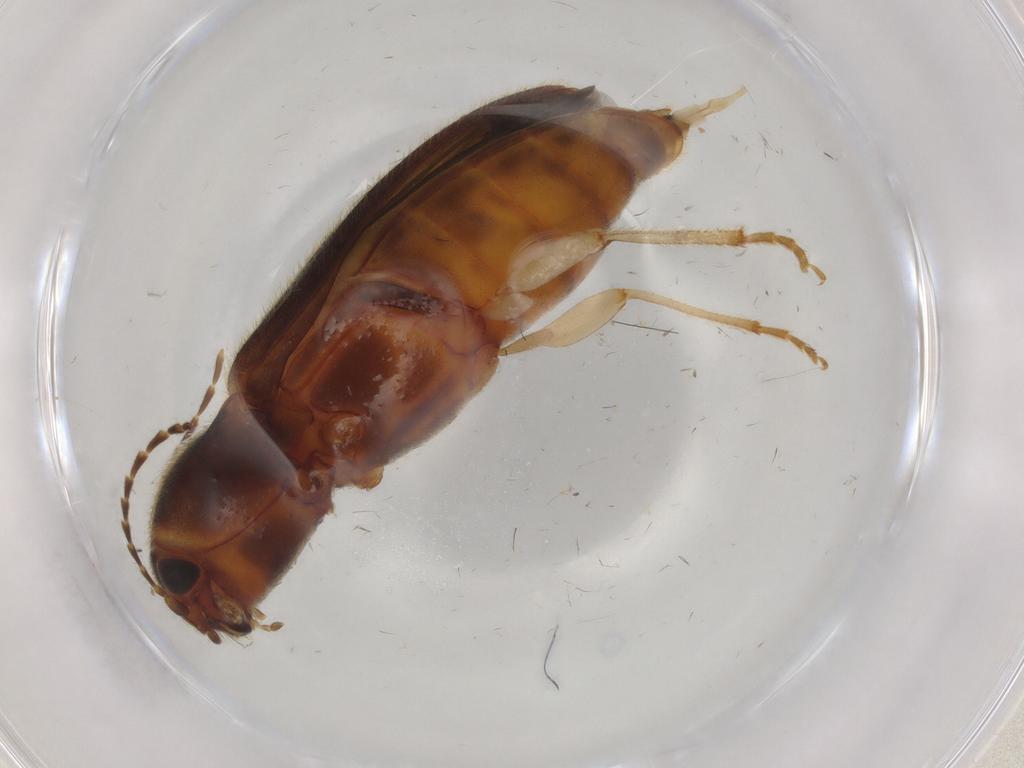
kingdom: Animalia
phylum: Arthropoda
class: Insecta
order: Coleoptera
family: Elateridae
